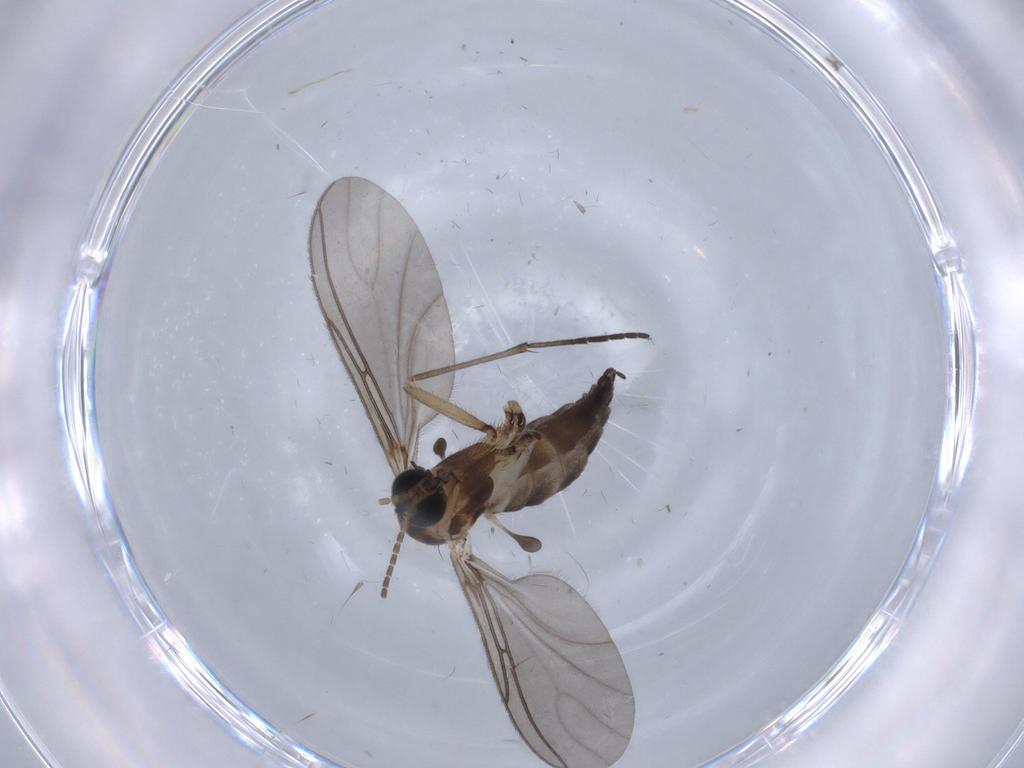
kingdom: Animalia
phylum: Arthropoda
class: Insecta
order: Diptera
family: Sciaridae
